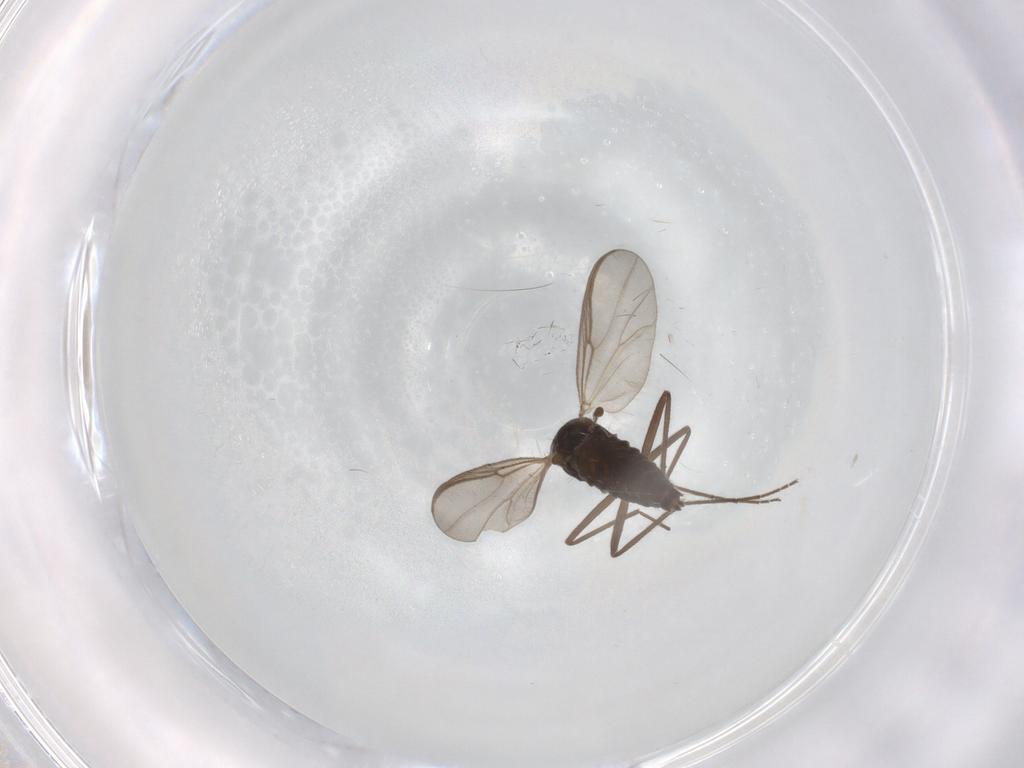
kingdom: Animalia
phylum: Arthropoda
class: Insecta
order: Diptera
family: Chironomidae
